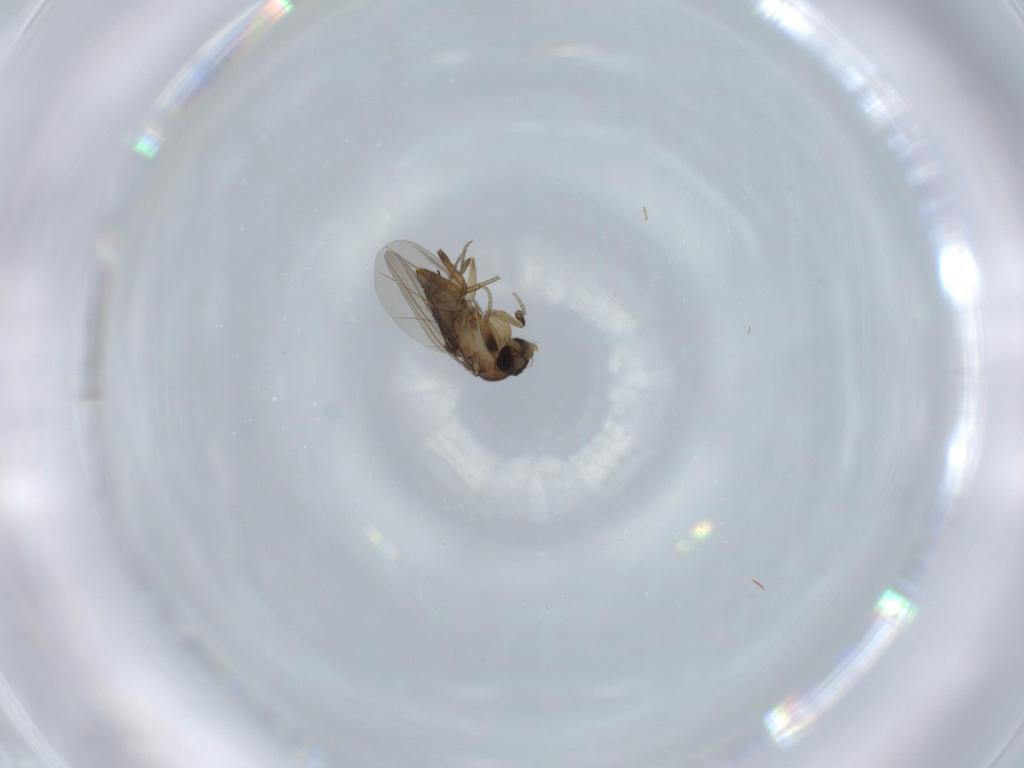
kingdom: Animalia
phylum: Arthropoda
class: Insecta
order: Diptera
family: Phoridae
